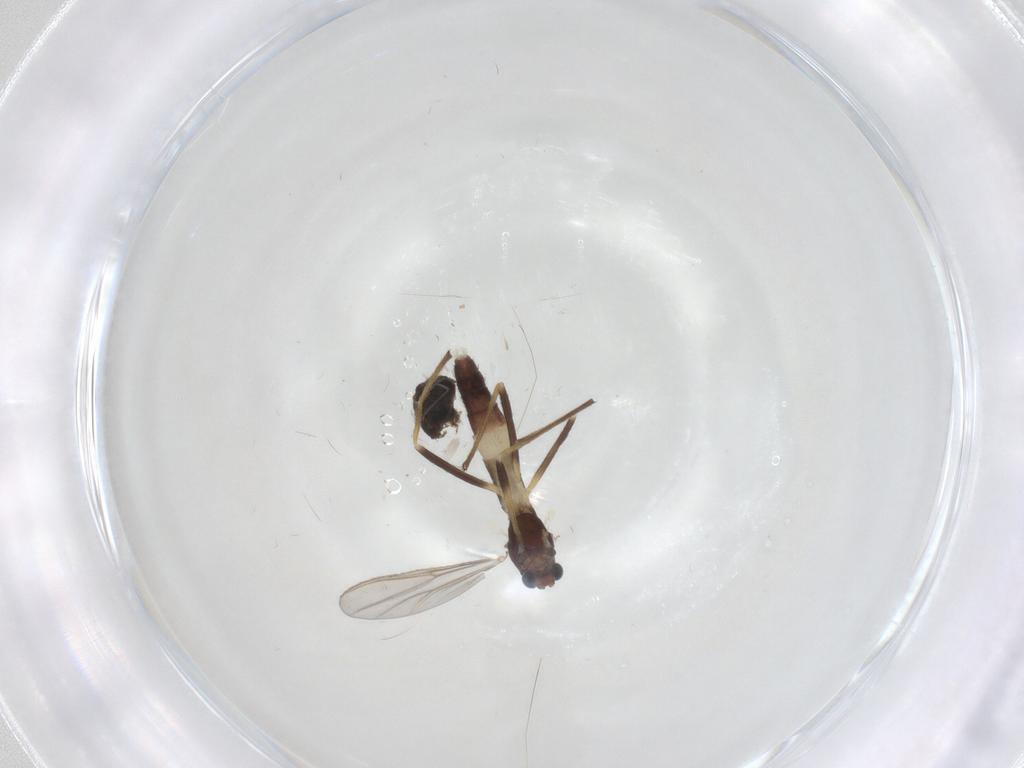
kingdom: Animalia
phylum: Arthropoda
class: Insecta
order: Diptera
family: Chironomidae
